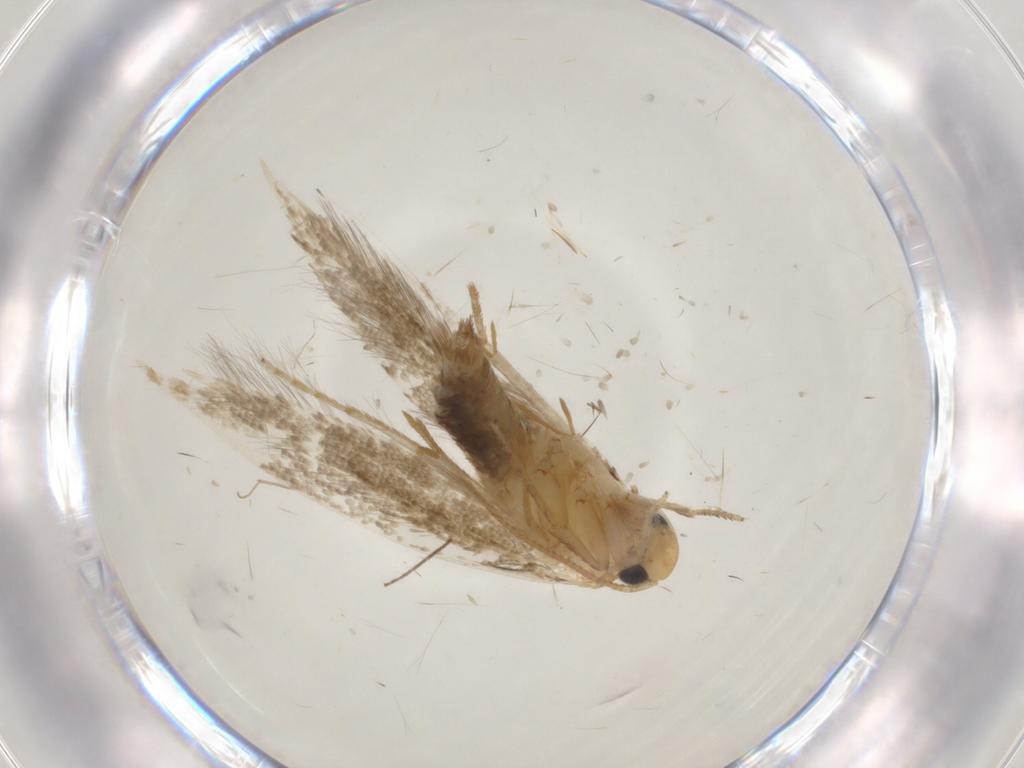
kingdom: Animalia
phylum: Arthropoda
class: Insecta
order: Lepidoptera
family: Tineidae
